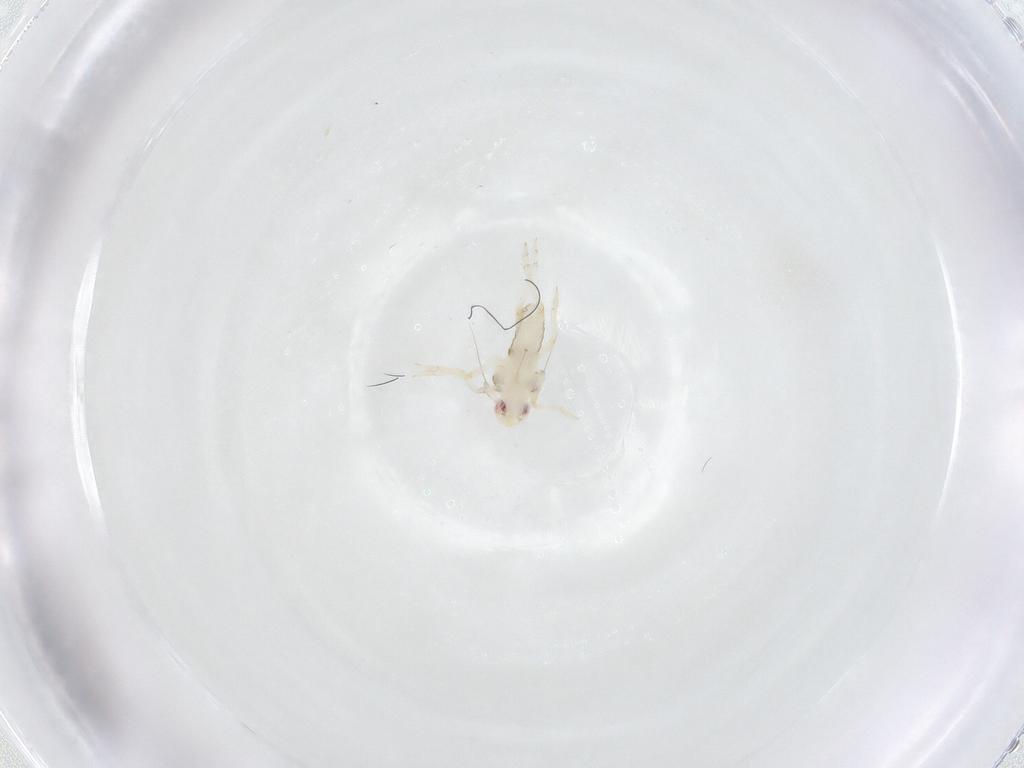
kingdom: Animalia
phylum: Arthropoda
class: Insecta
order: Hemiptera
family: Delphacidae
